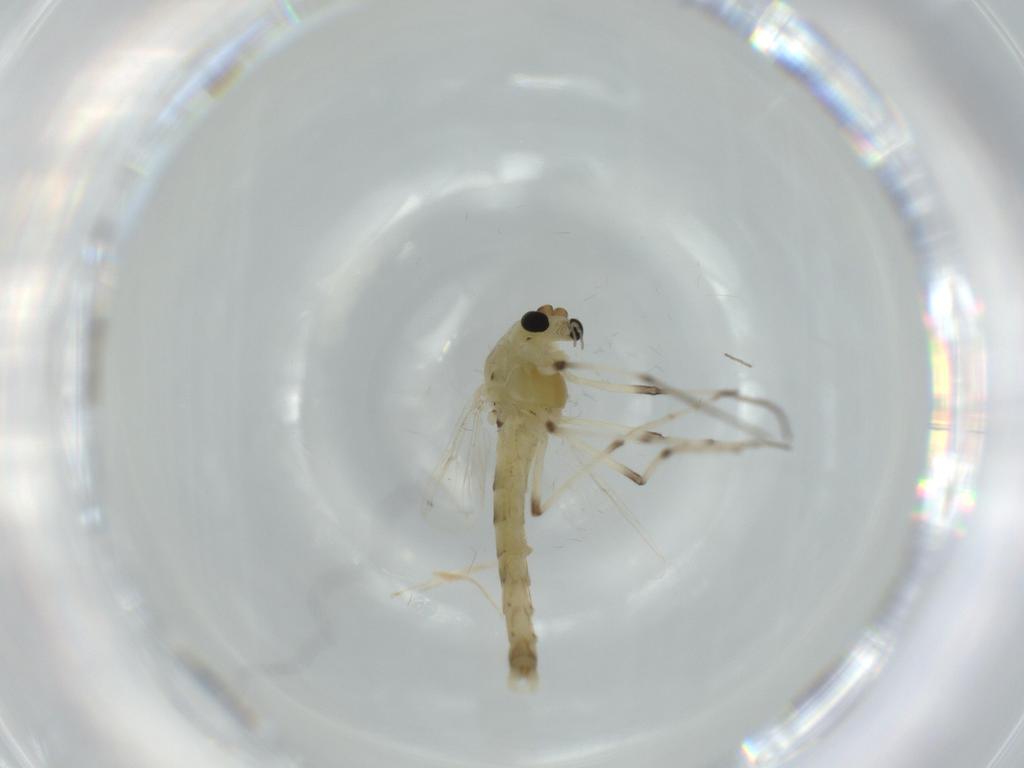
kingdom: Animalia
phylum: Arthropoda
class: Insecta
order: Diptera
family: Chironomidae
